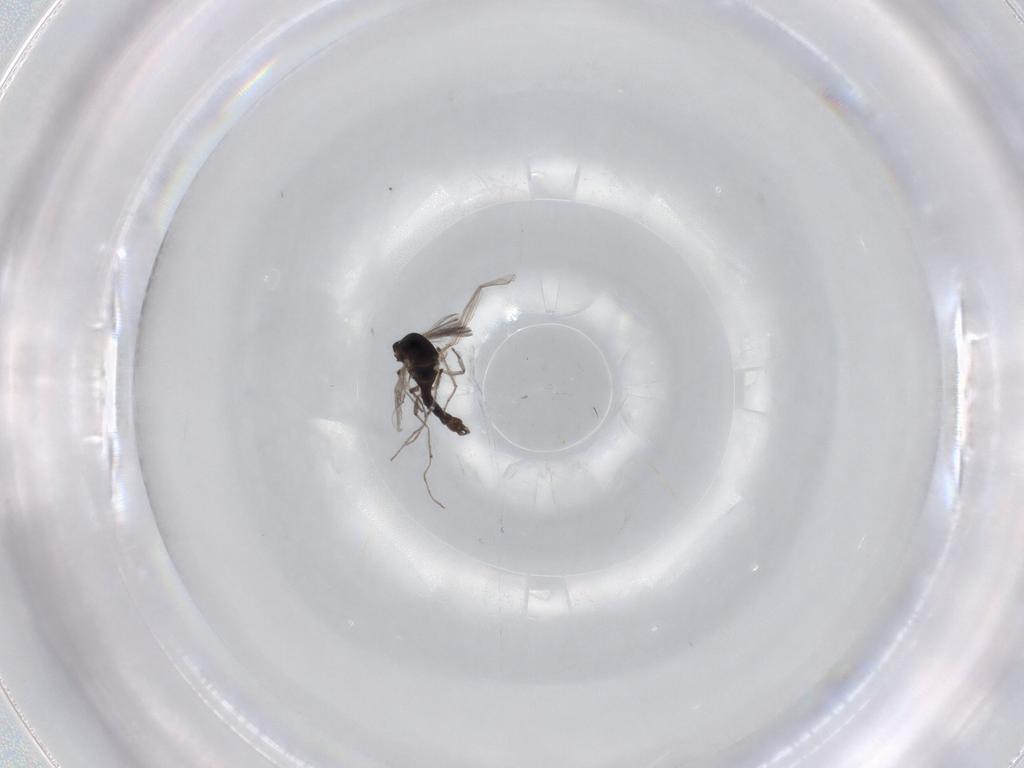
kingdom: Animalia
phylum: Arthropoda
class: Insecta
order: Diptera
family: Chironomidae
